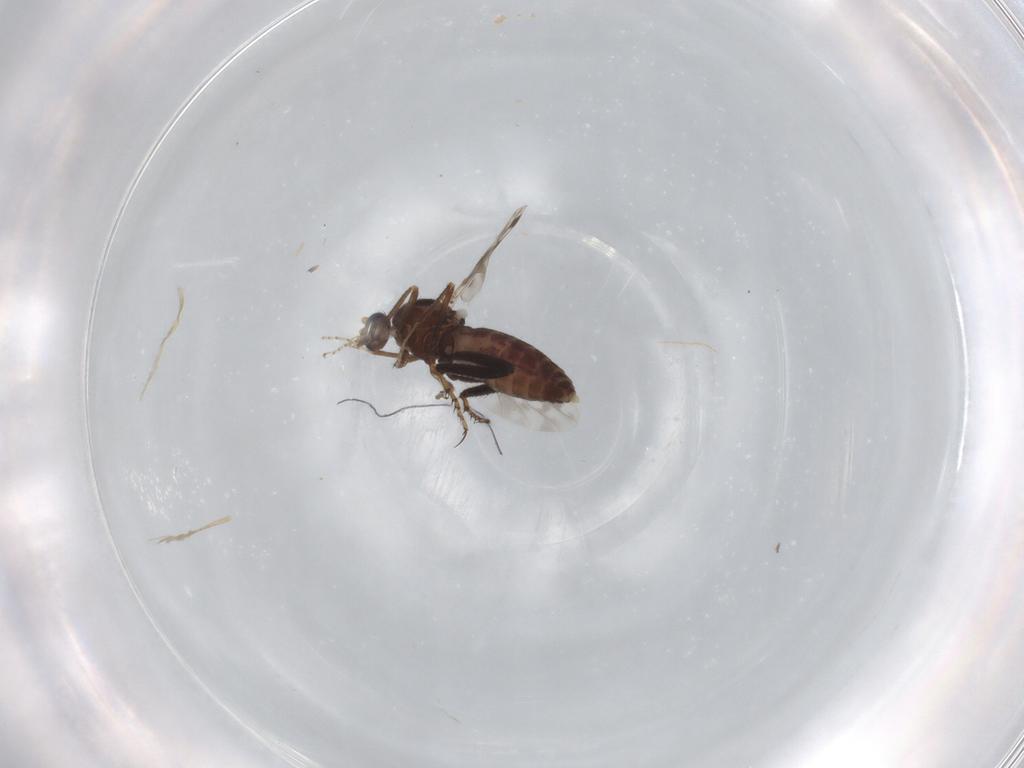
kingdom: Animalia
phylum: Arthropoda
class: Insecta
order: Diptera
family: Ceratopogonidae
